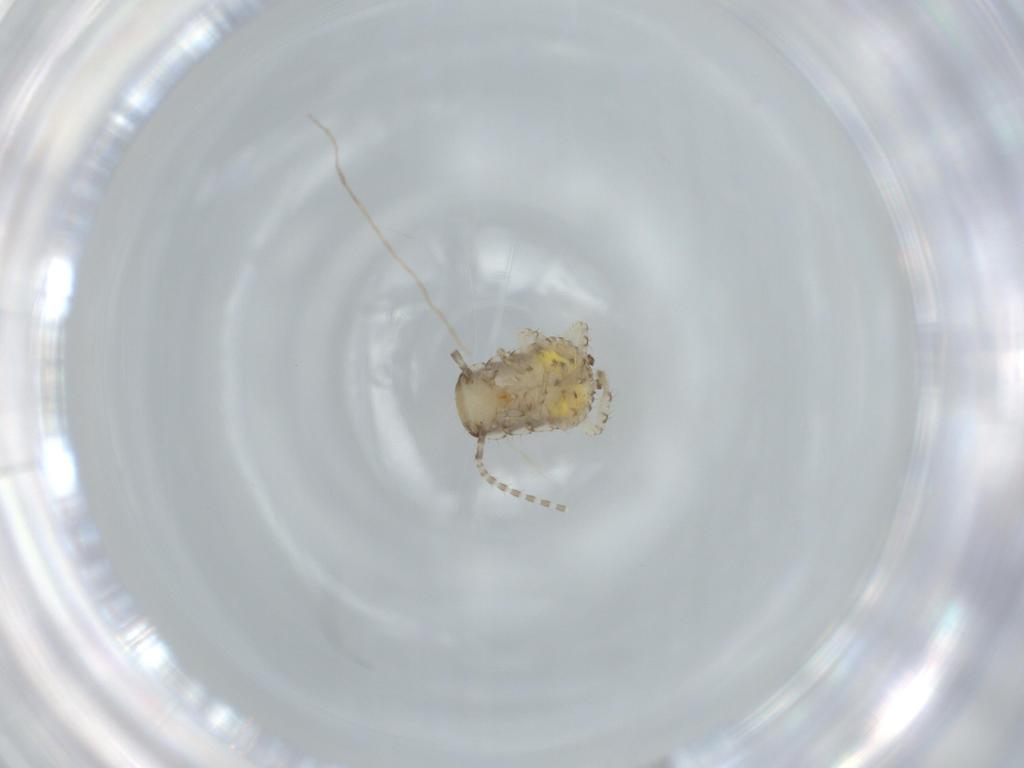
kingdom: Animalia
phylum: Arthropoda
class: Insecta
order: Blattodea
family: Ectobiidae
